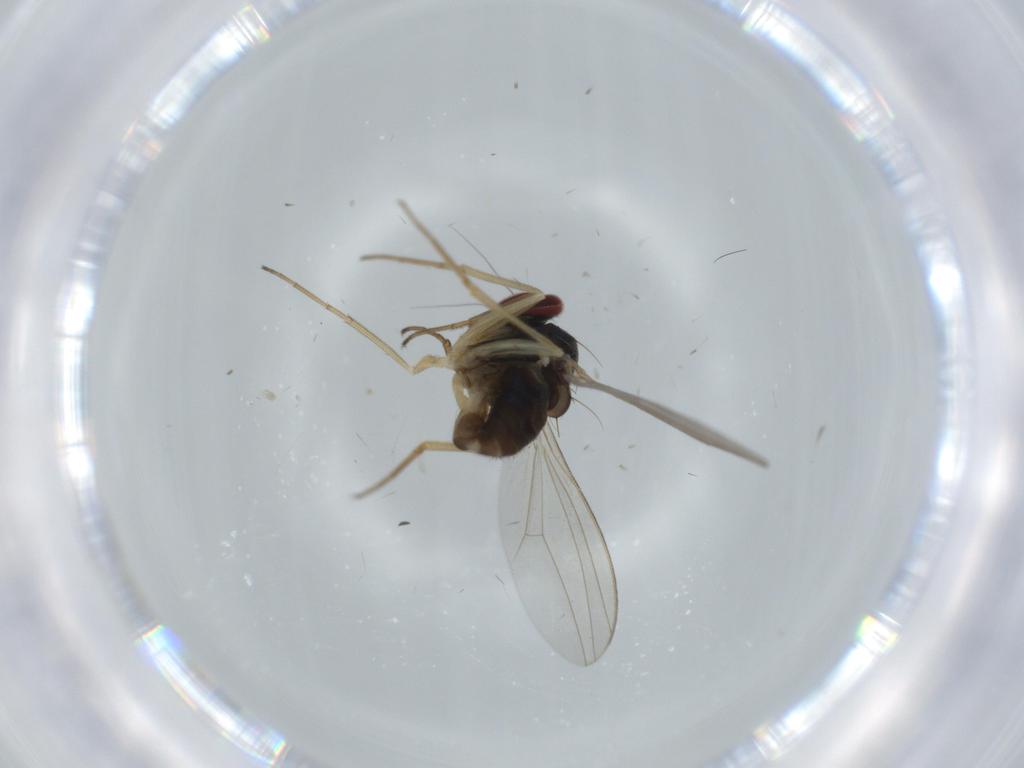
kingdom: Animalia
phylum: Arthropoda
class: Insecta
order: Diptera
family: Dolichopodidae
